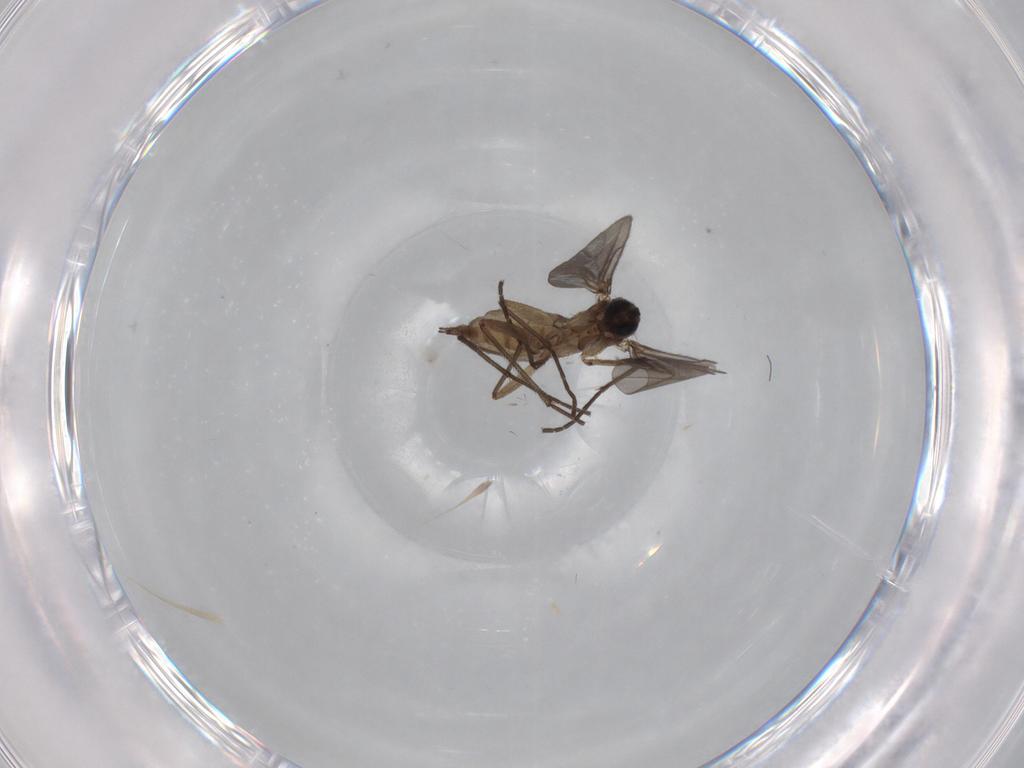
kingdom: Animalia
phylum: Arthropoda
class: Insecta
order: Diptera
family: Sciaridae
